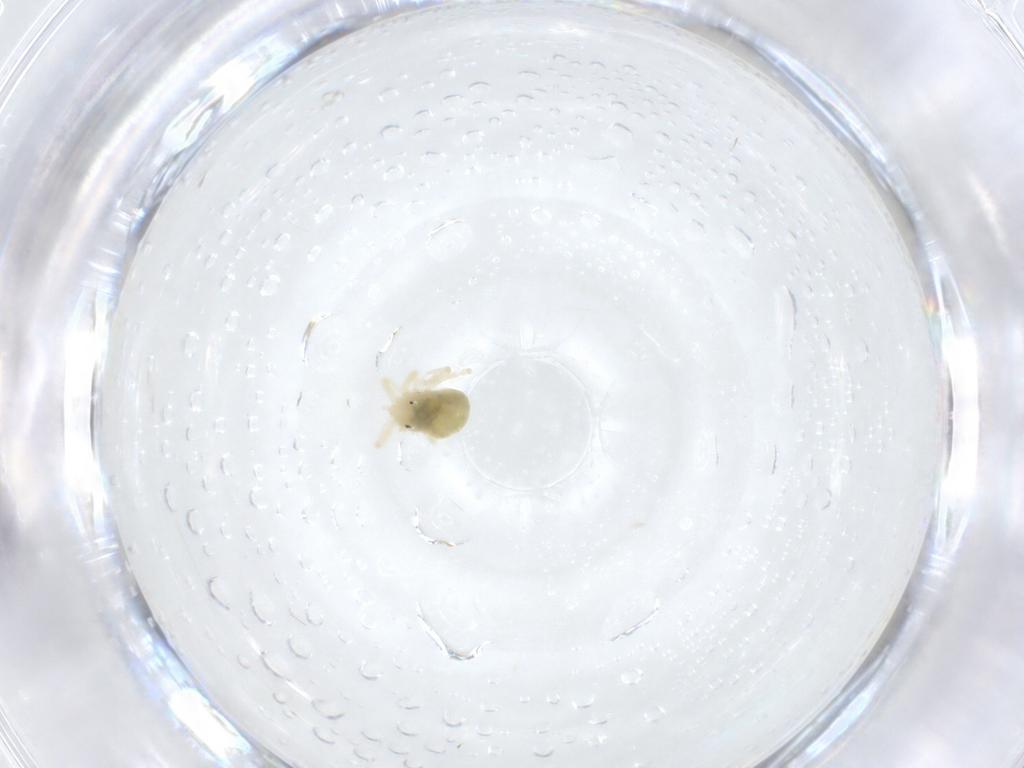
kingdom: Animalia
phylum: Arthropoda
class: Arachnida
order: Trombidiformes
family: Anystidae
